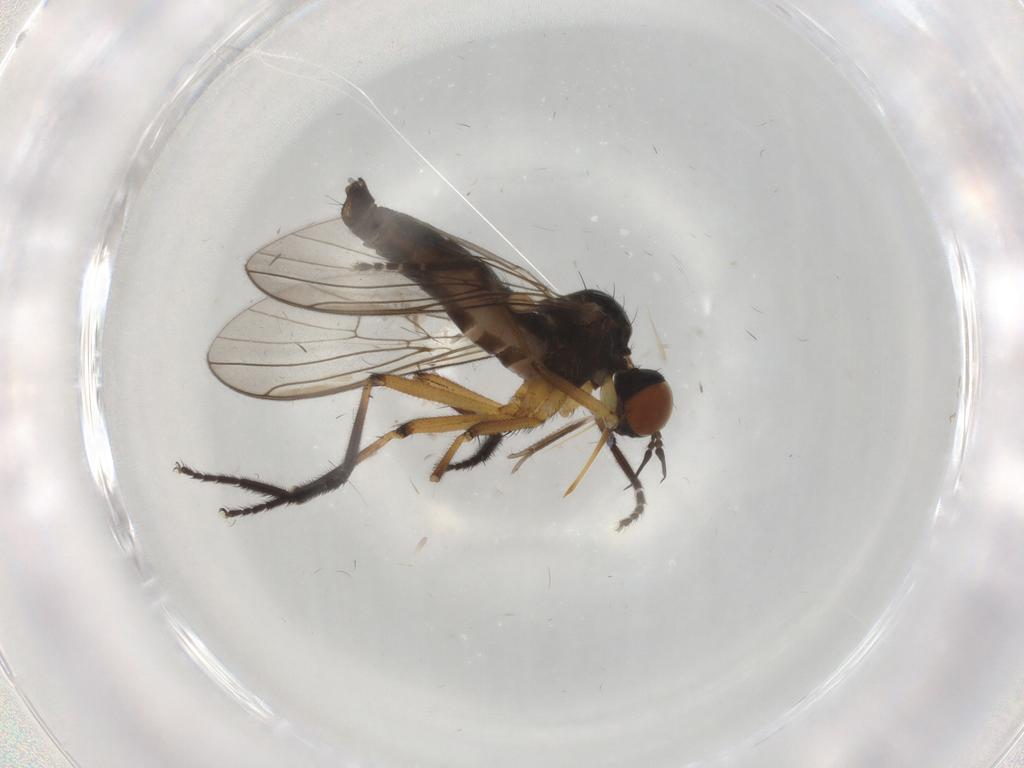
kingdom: Animalia
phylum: Arthropoda
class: Insecta
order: Diptera
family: Empididae
